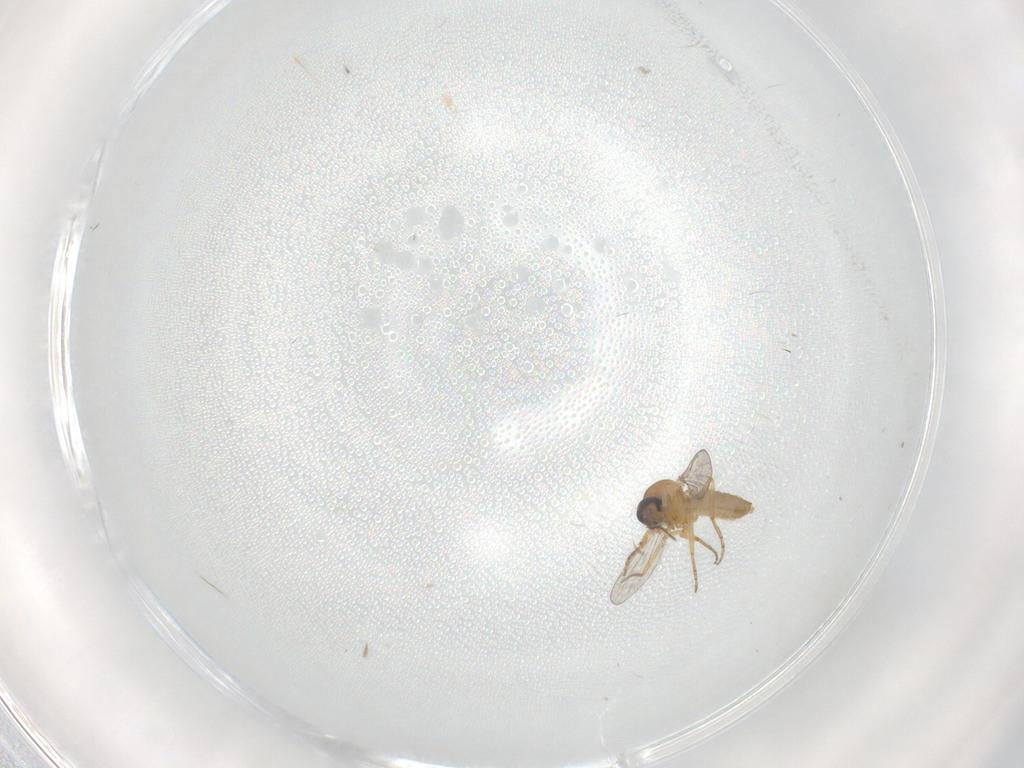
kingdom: Animalia
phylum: Arthropoda
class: Insecta
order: Diptera
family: Cecidomyiidae
